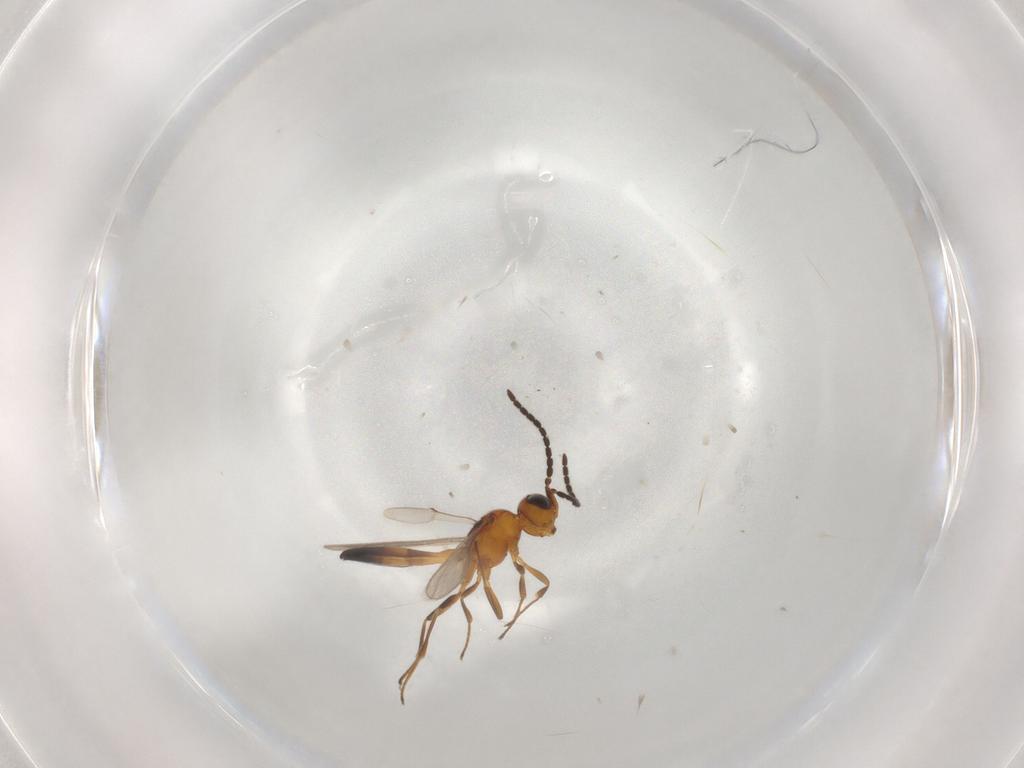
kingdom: Animalia
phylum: Arthropoda
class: Insecta
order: Hymenoptera
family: Scelionidae
